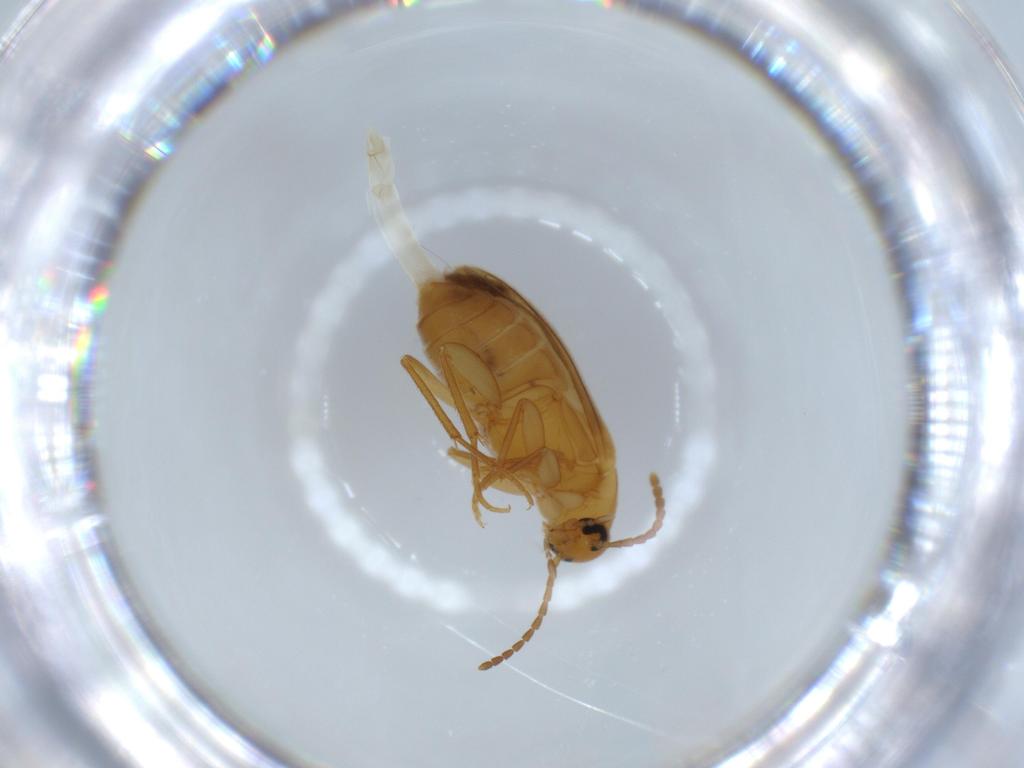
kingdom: Animalia
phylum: Arthropoda
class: Insecta
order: Coleoptera
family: Scraptiidae
